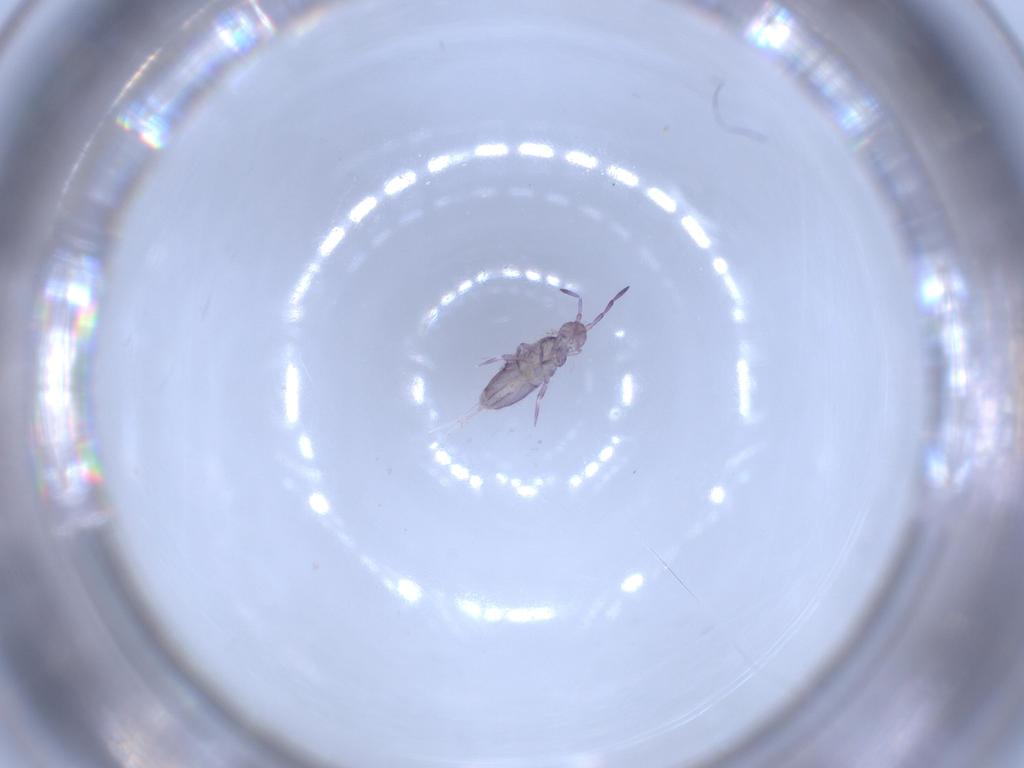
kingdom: Animalia
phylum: Arthropoda
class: Collembola
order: Entomobryomorpha
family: Entomobryidae
